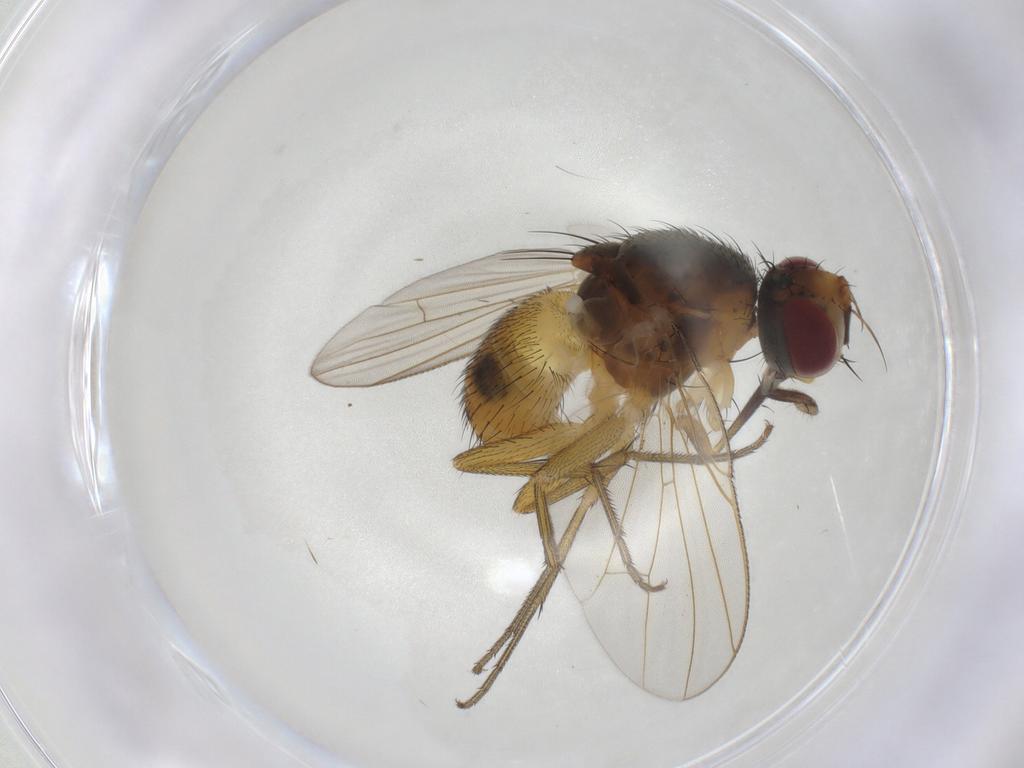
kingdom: Animalia
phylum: Arthropoda
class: Insecta
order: Diptera
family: Muscidae
